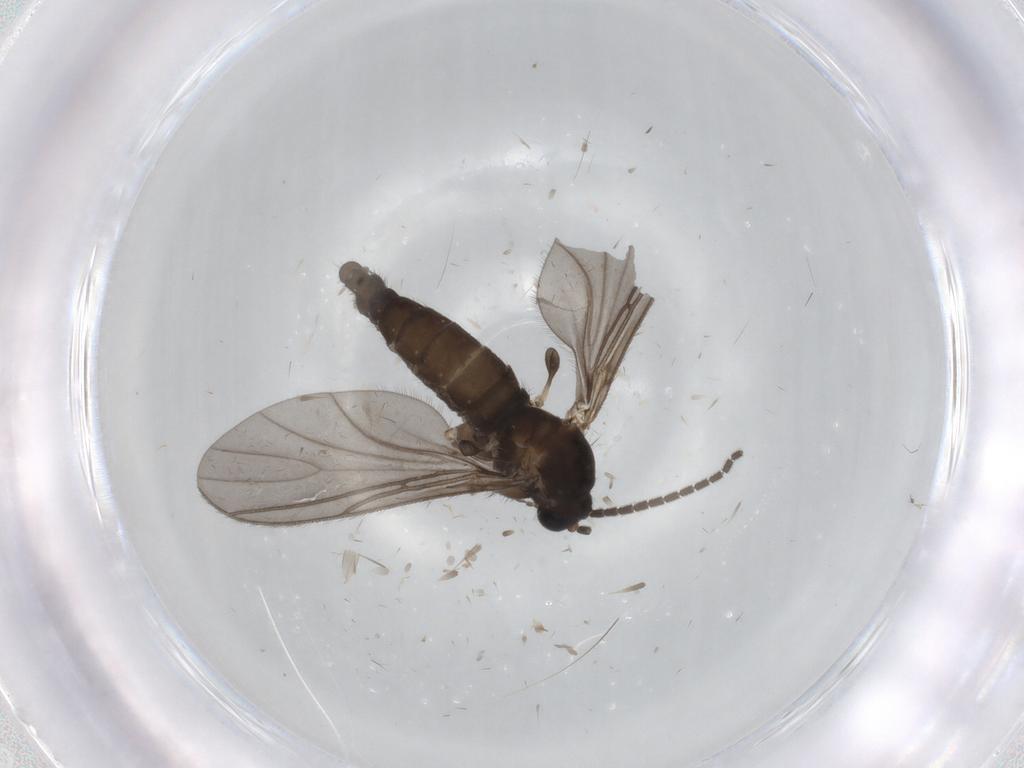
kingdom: Animalia
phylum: Arthropoda
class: Insecta
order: Diptera
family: Sciaridae
